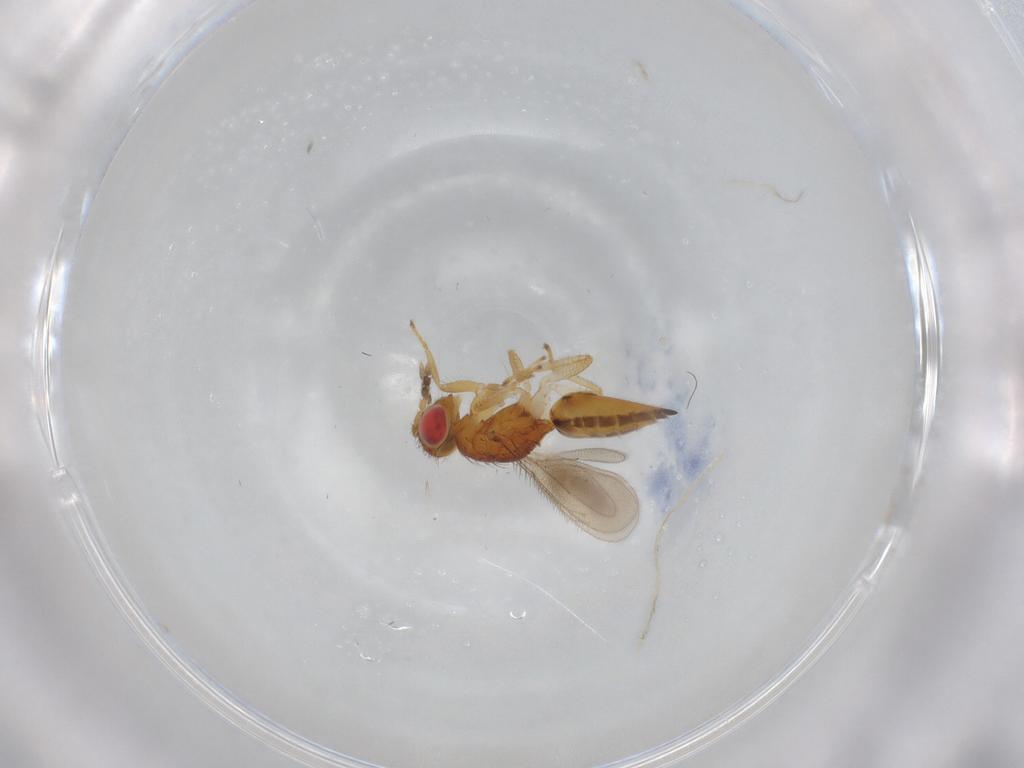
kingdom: Animalia
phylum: Arthropoda
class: Insecta
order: Hymenoptera
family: Eulophidae
